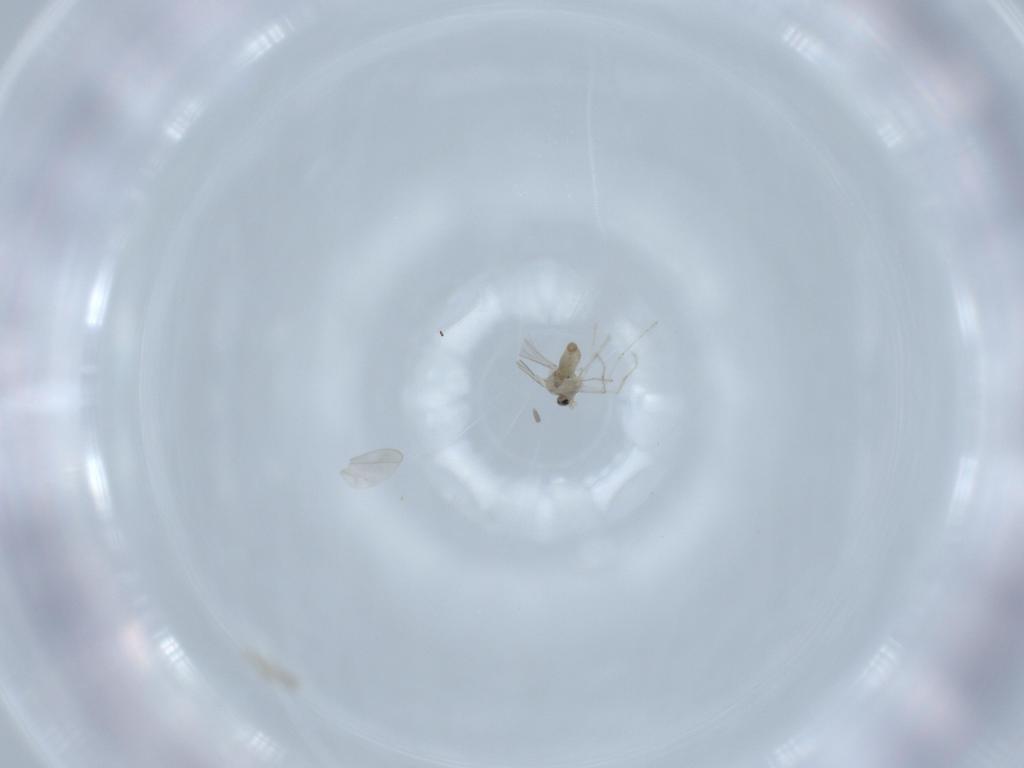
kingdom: Animalia
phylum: Arthropoda
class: Insecta
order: Diptera
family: Cecidomyiidae
